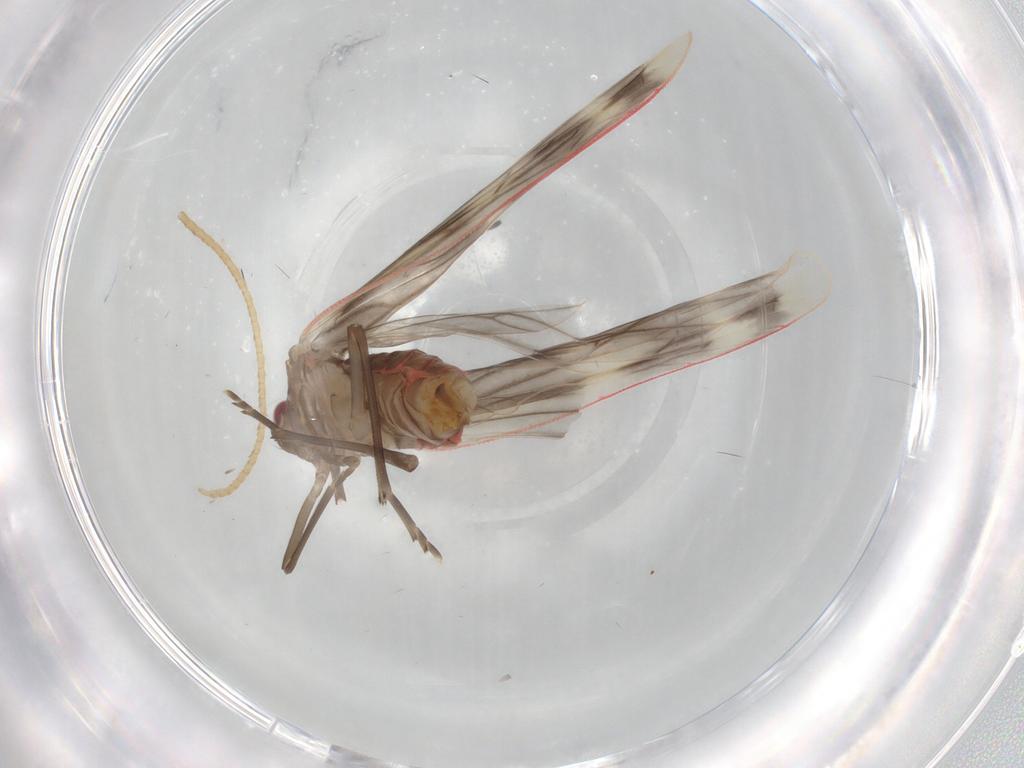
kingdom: Animalia
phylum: Arthropoda
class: Insecta
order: Hemiptera
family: Derbidae
